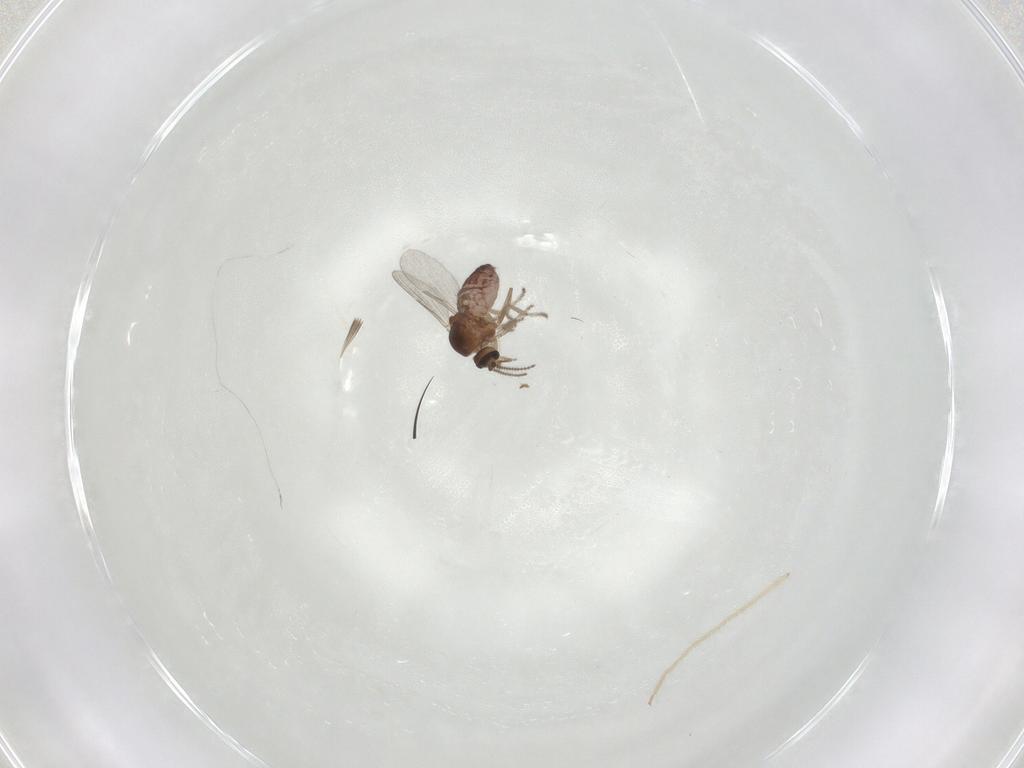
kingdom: Animalia
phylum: Arthropoda
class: Insecta
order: Diptera
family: Ceratopogonidae
